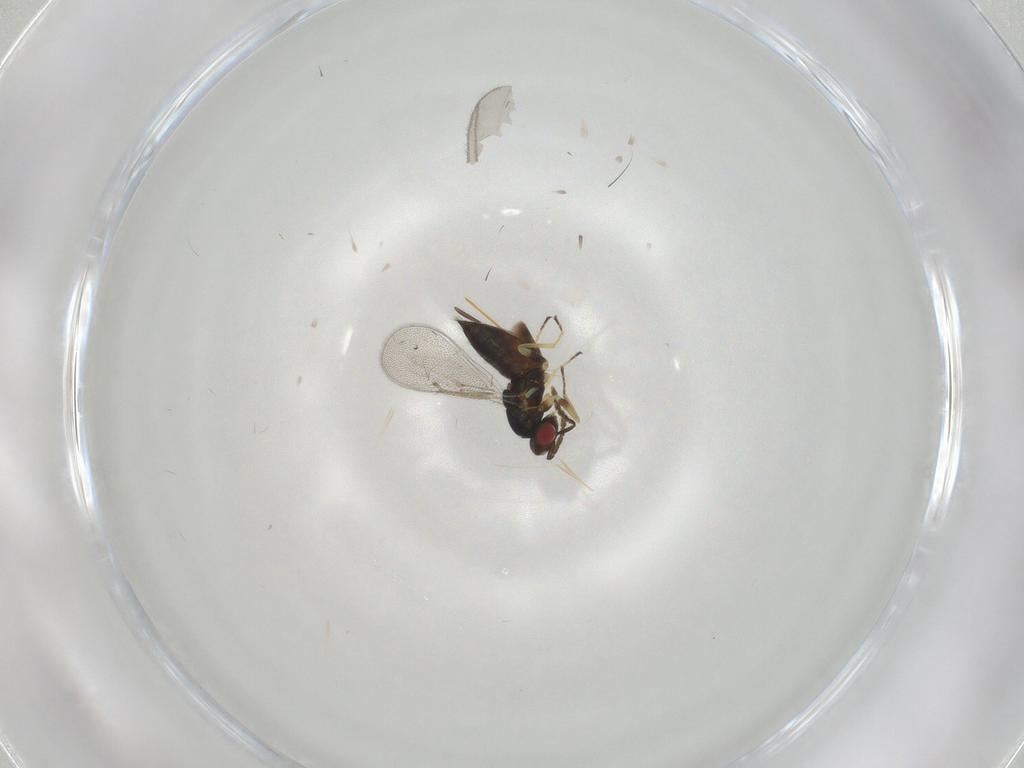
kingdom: Animalia
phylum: Arthropoda
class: Insecta
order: Hymenoptera
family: Eulophidae
